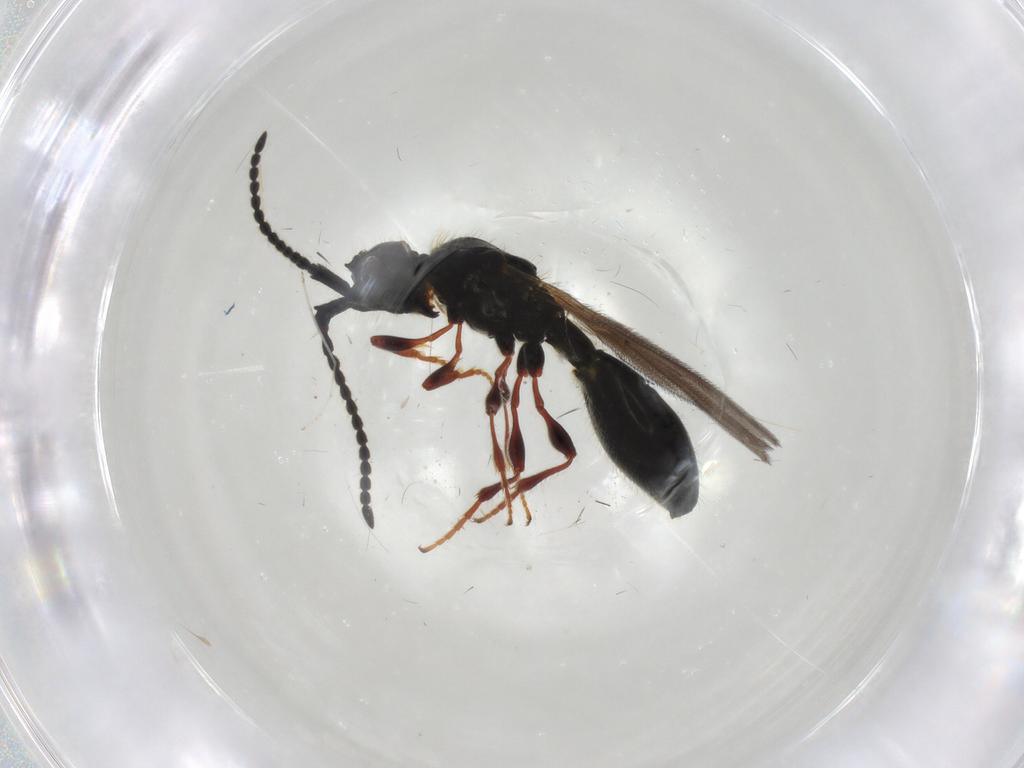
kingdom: Animalia
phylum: Arthropoda
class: Insecta
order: Hymenoptera
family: Diapriidae
